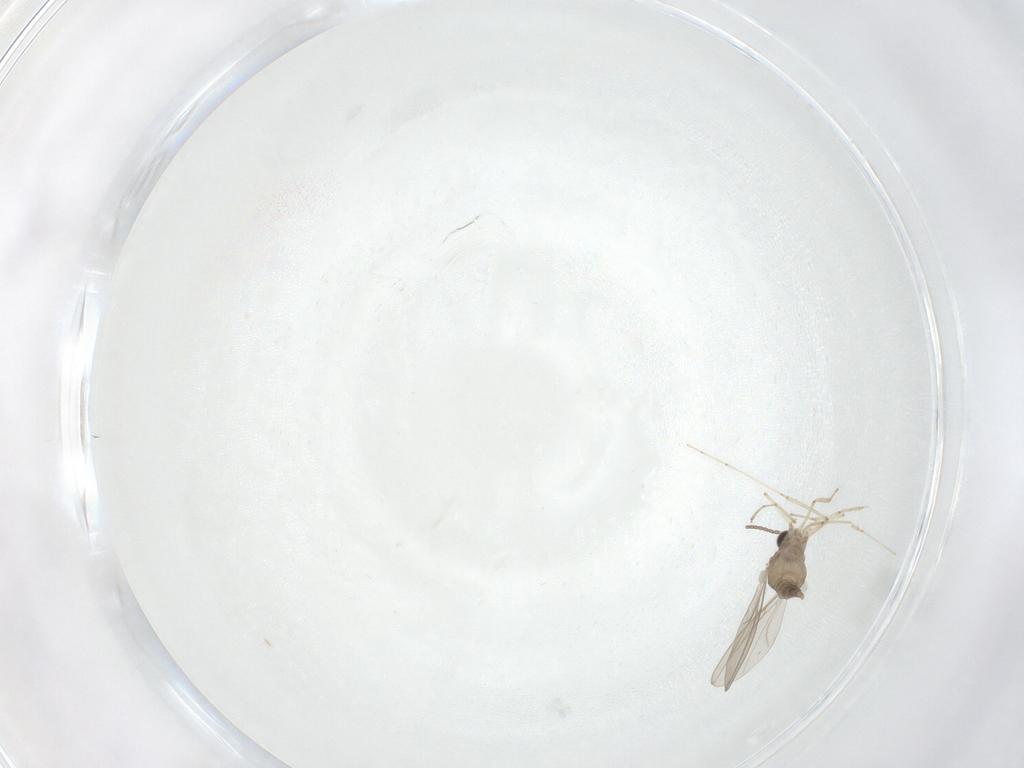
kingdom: Animalia
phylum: Arthropoda
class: Insecta
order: Diptera
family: Cecidomyiidae
